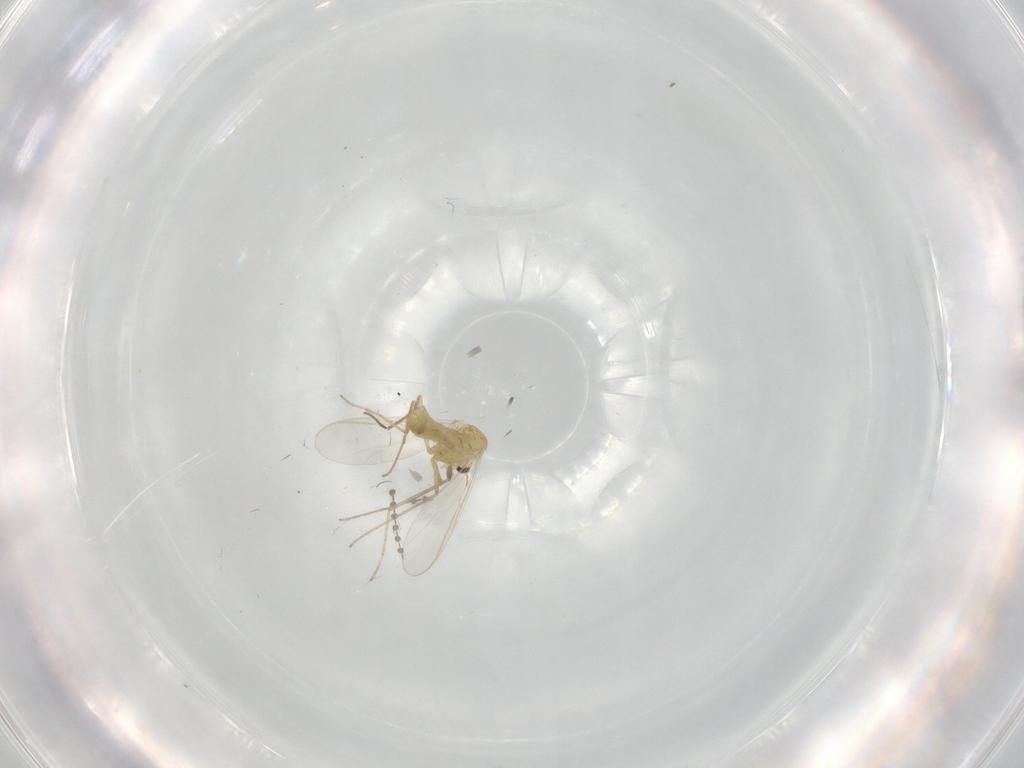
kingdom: Animalia
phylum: Arthropoda
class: Insecta
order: Diptera
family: Chironomidae
